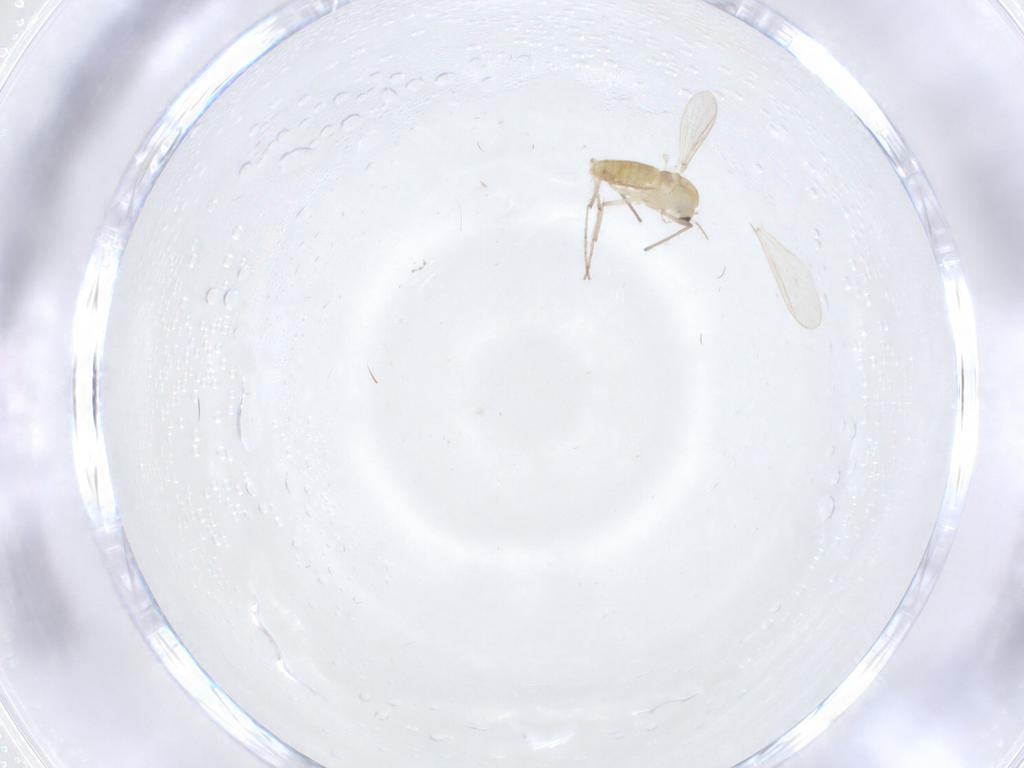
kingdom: Animalia
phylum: Arthropoda
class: Insecta
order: Diptera
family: Cecidomyiidae
